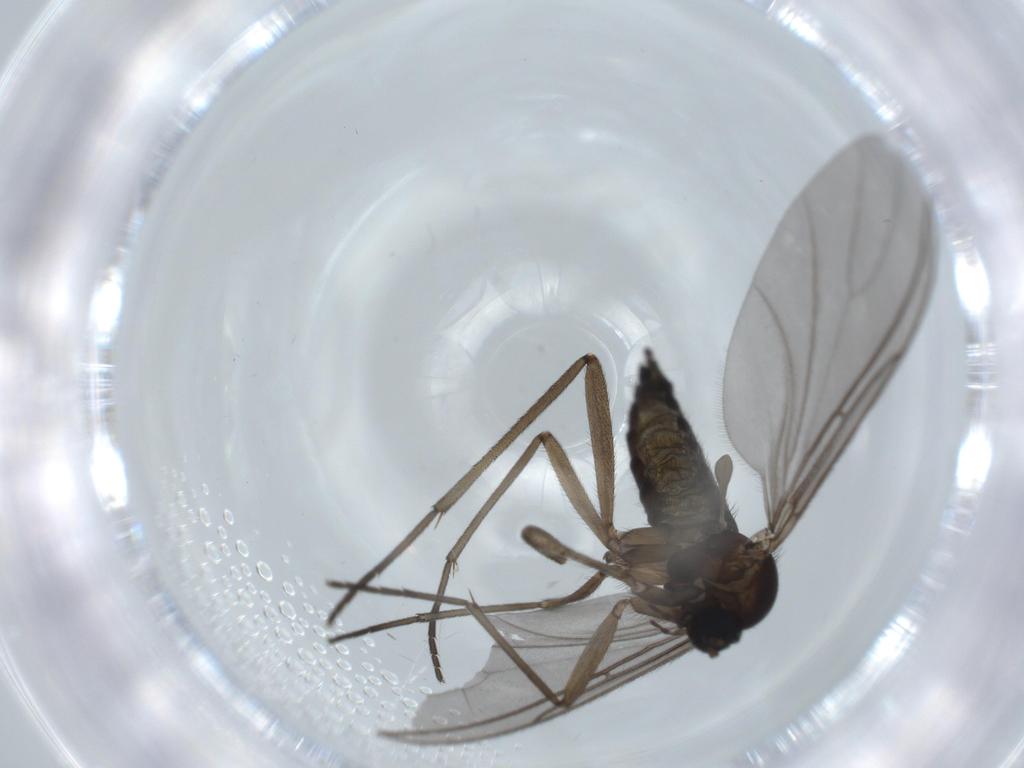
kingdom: Animalia
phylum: Arthropoda
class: Insecta
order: Diptera
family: Sciaridae
